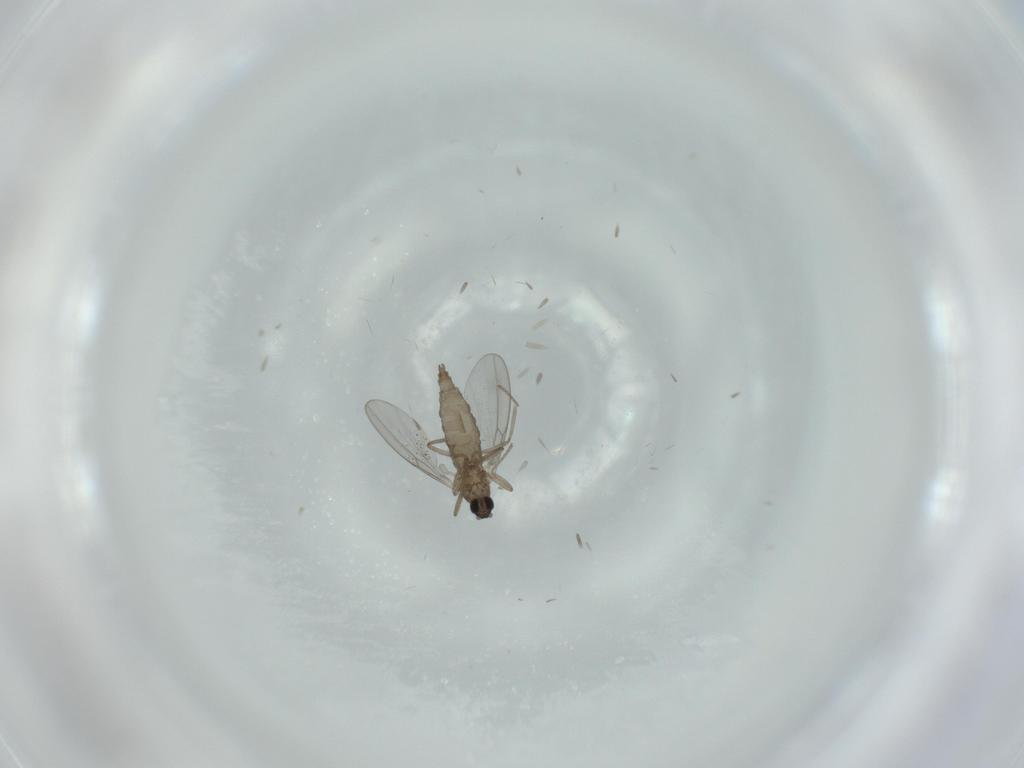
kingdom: Animalia
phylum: Arthropoda
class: Insecta
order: Diptera
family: Cecidomyiidae
